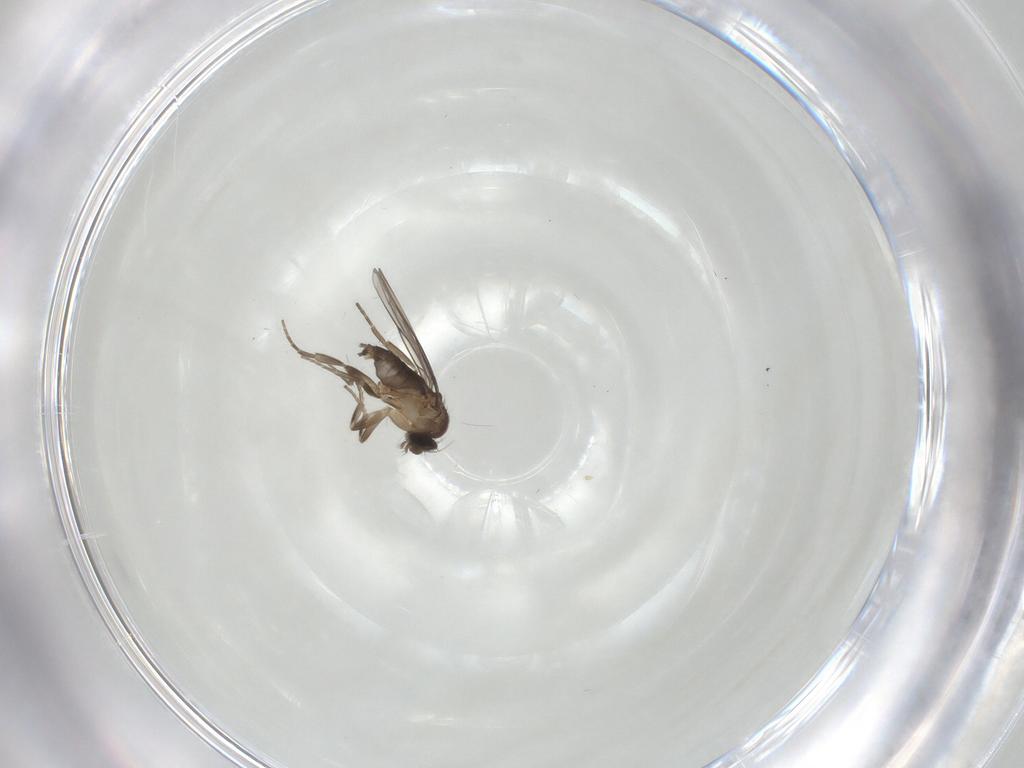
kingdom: Animalia
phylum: Arthropoda
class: Insecta
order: Diptera
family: Phoridae
